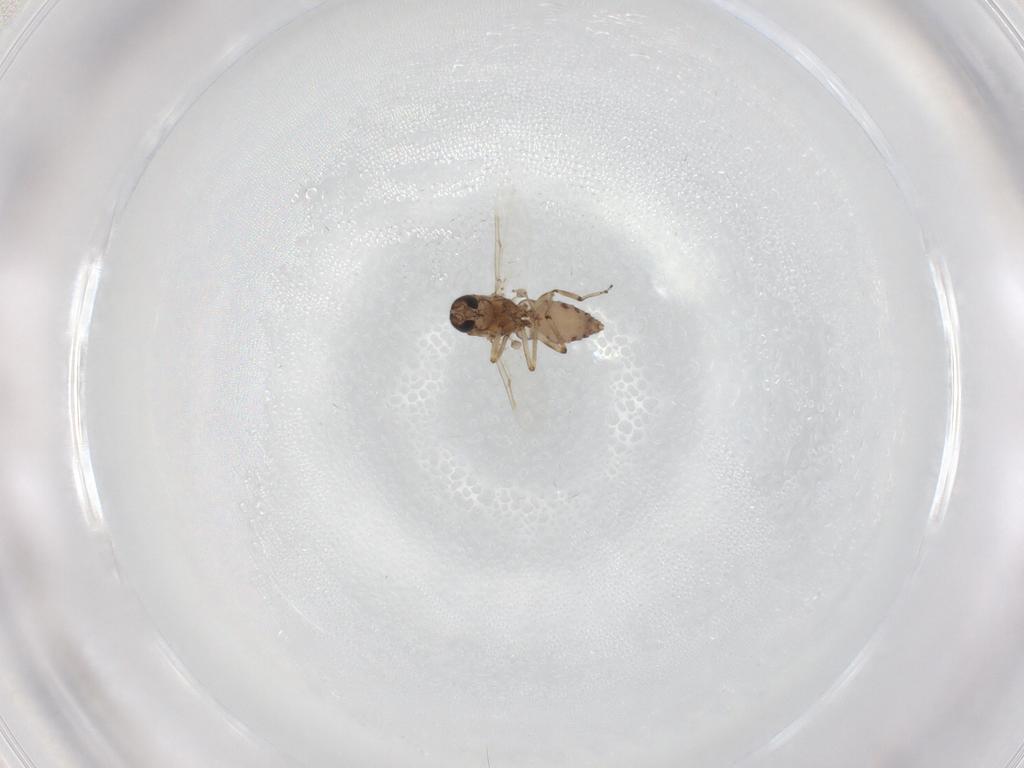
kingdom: Animalia
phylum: Arthropoda
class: Insecta
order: Diptera
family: Ceratopogonidae
